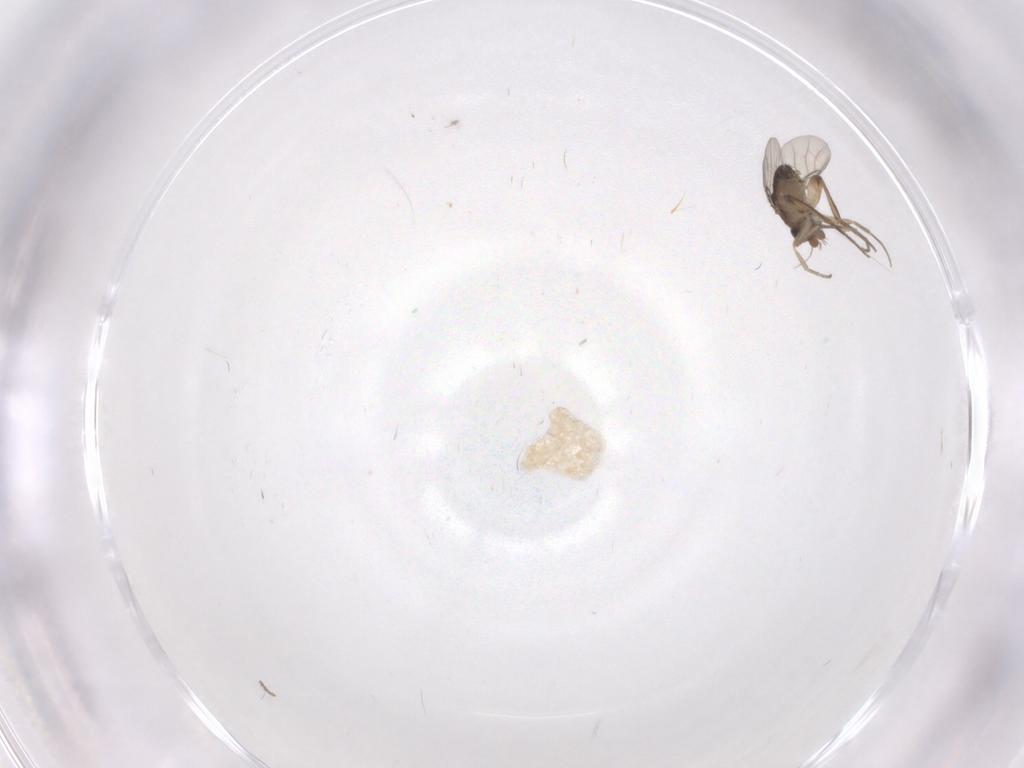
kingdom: Animalia
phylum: Arthropoda
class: Insecta
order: Diptera
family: Phoridae
